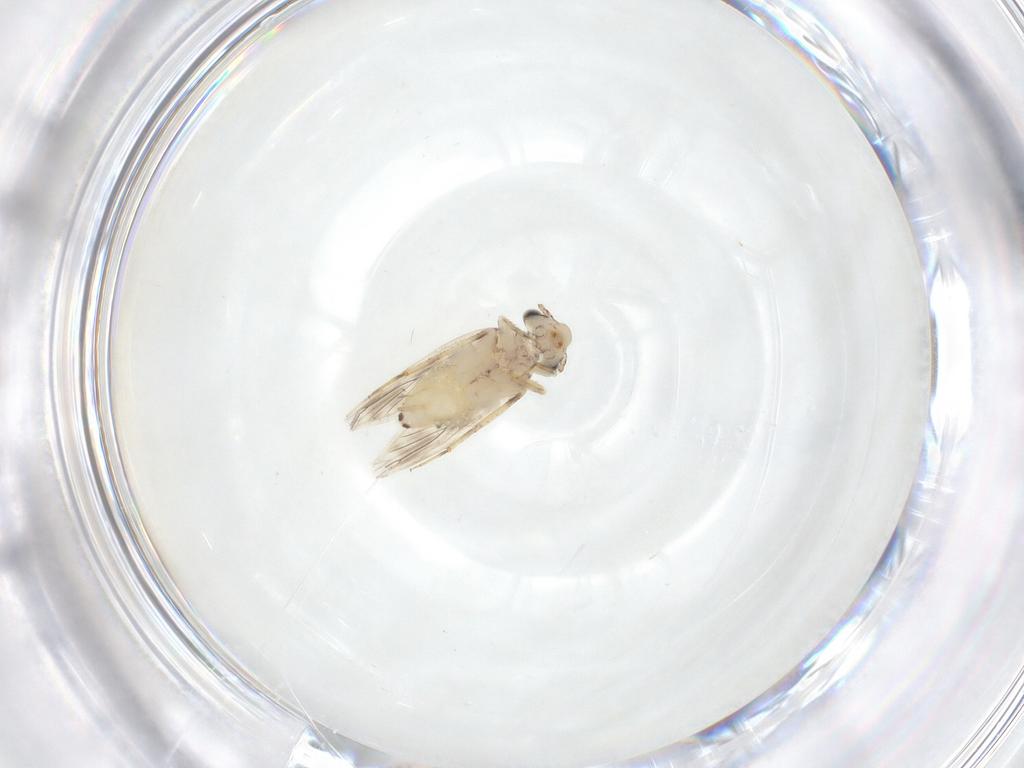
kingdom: Animalia
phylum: Arthropoda
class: Insecta
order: Psocodea
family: Lepidopsocidae
